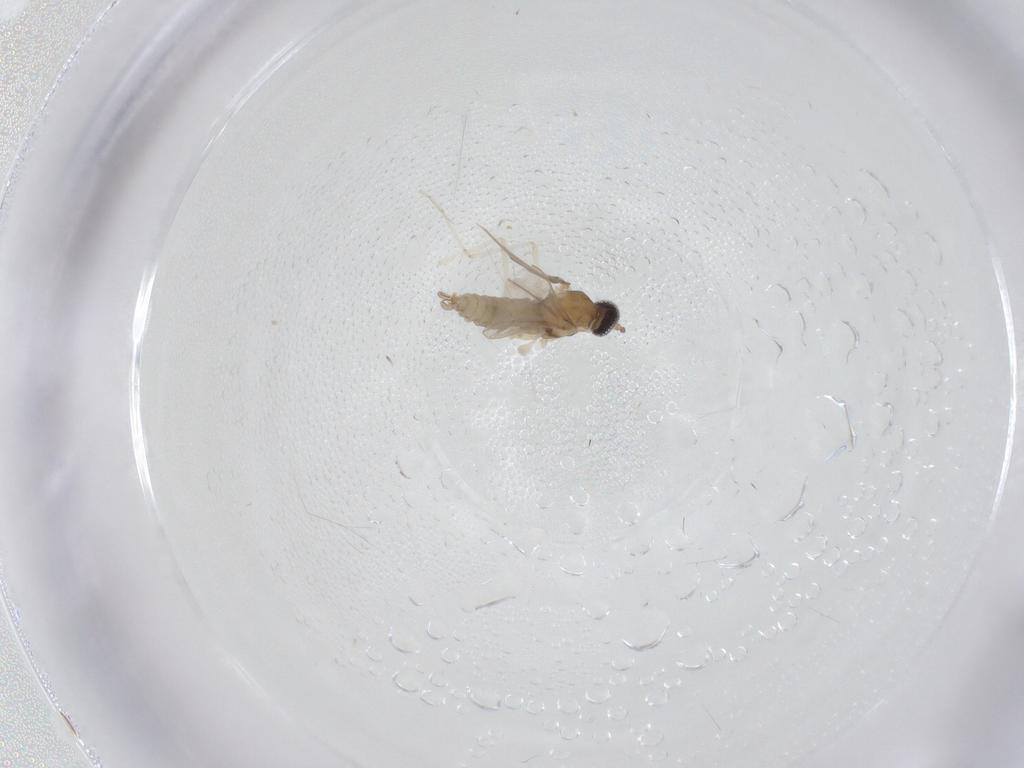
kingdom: Animalia
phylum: Arthropoda
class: Insecta
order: Diptera
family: Cecidomyiidae
